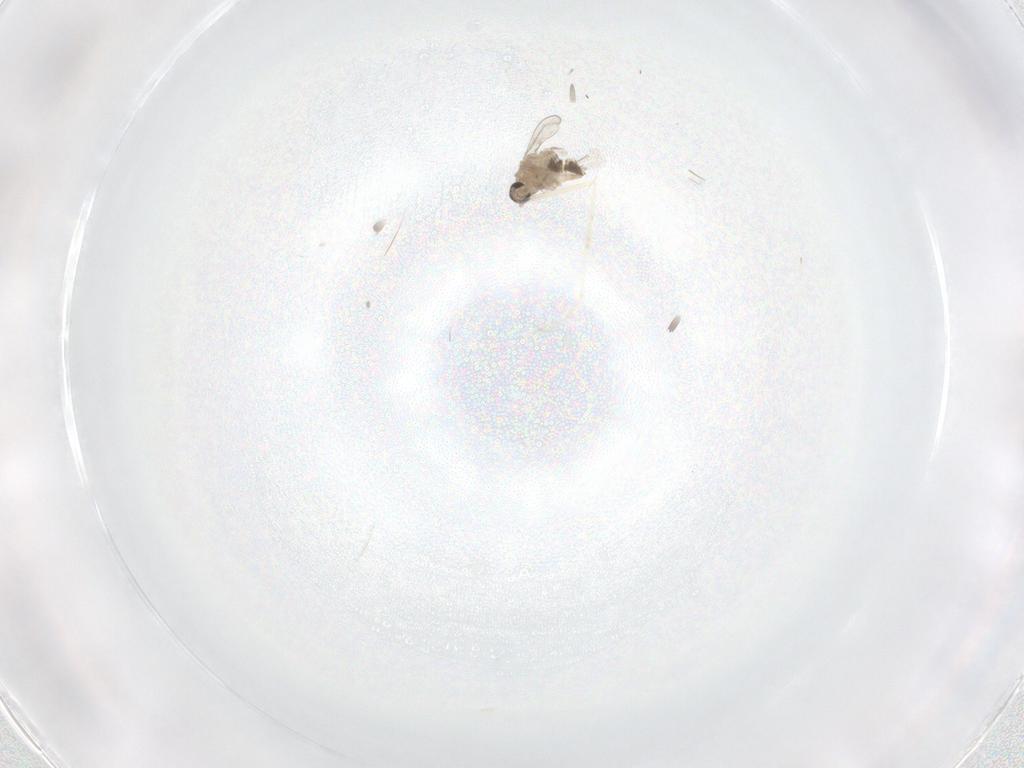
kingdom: Animalia
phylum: Arthropoda
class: Insecta
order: Diptera
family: Cecidomyiidae
